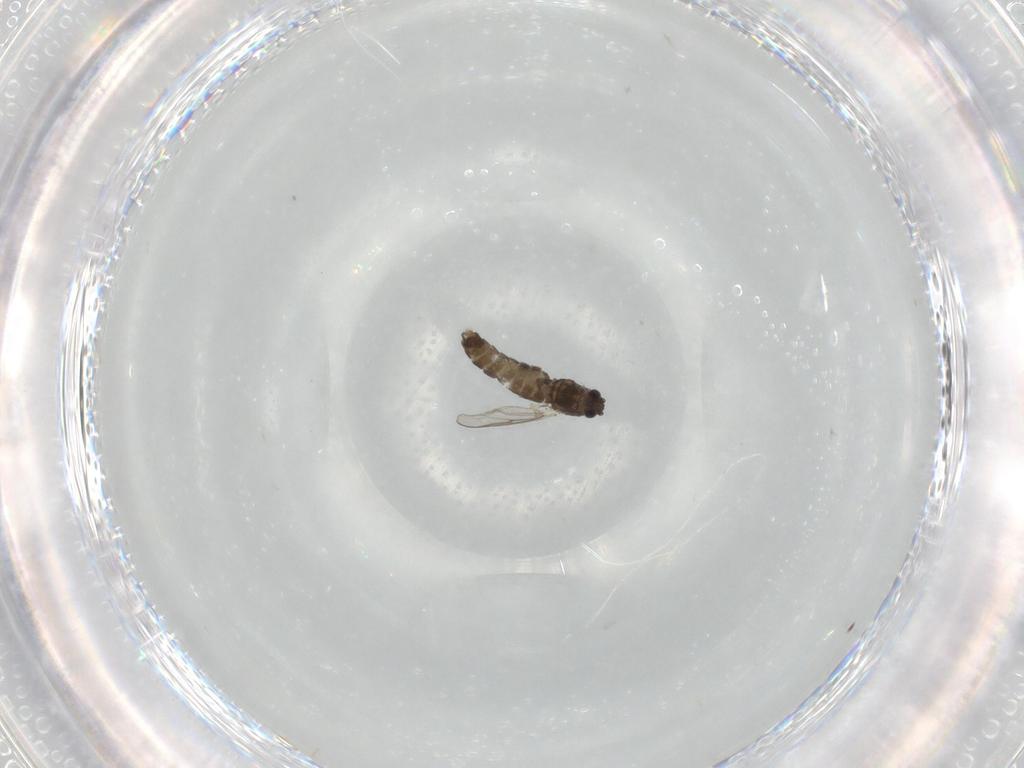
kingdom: Animalia
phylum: Arthropoda
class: Insecta
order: Diptera
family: Chironomidae
